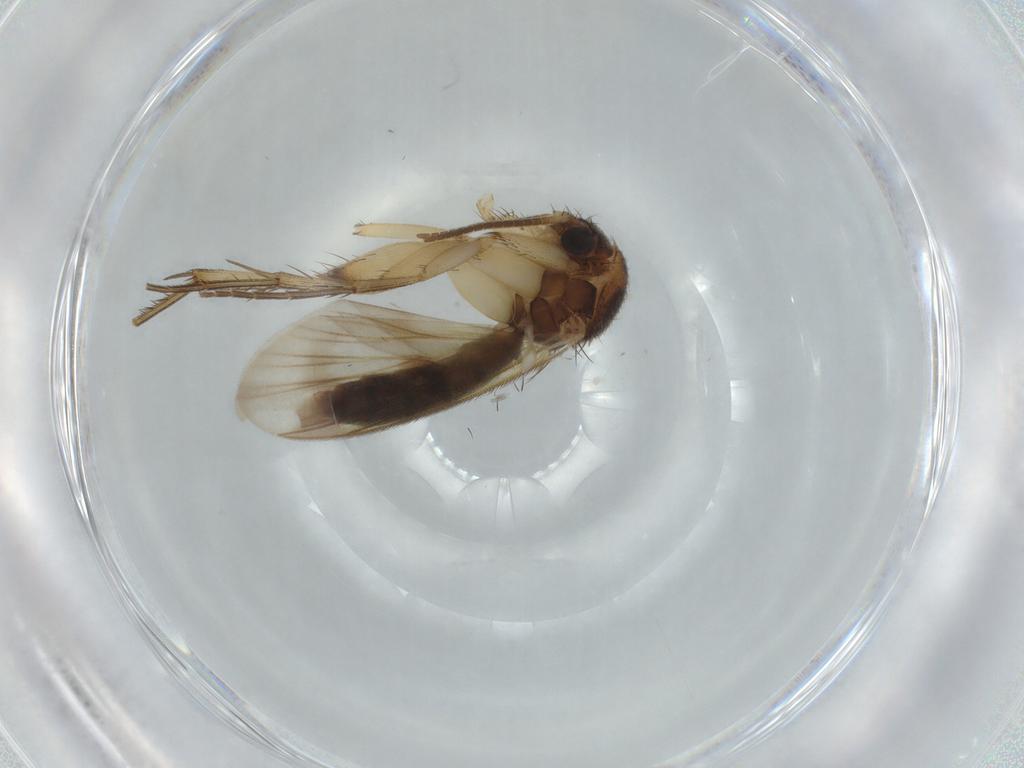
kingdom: Animalia
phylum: Arthropoda
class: Insecta
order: Diptera
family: Mycetophilidae
